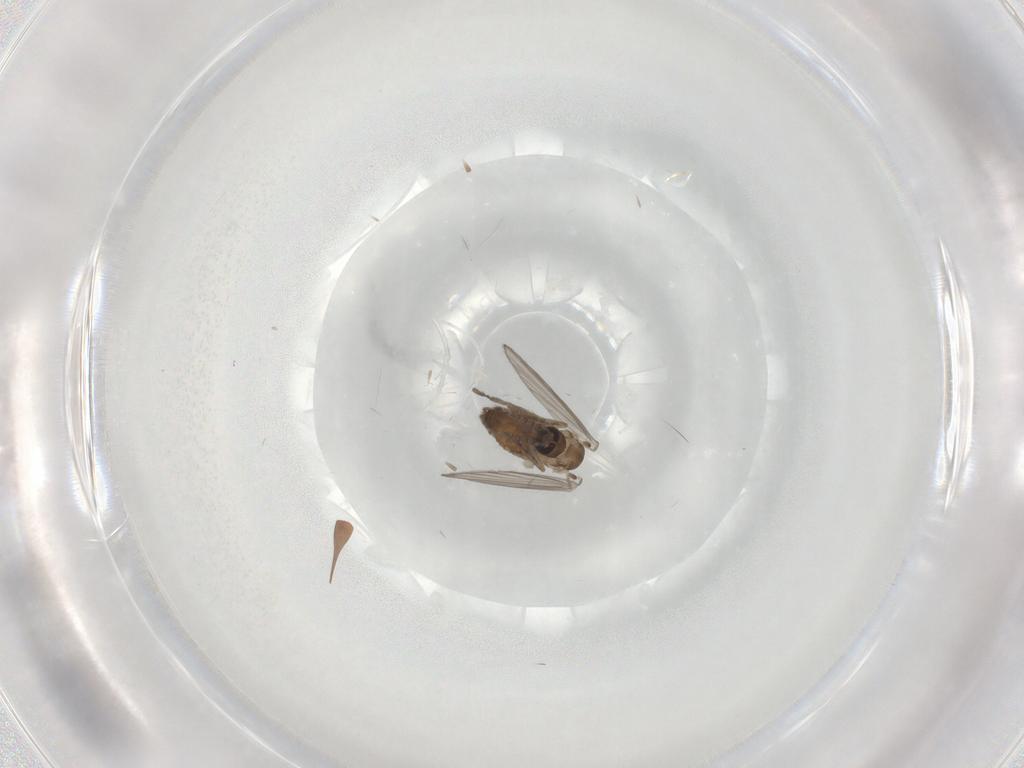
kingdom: Animalia
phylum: Arthropoda
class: Insecta
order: Diptera
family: Psychodidae
